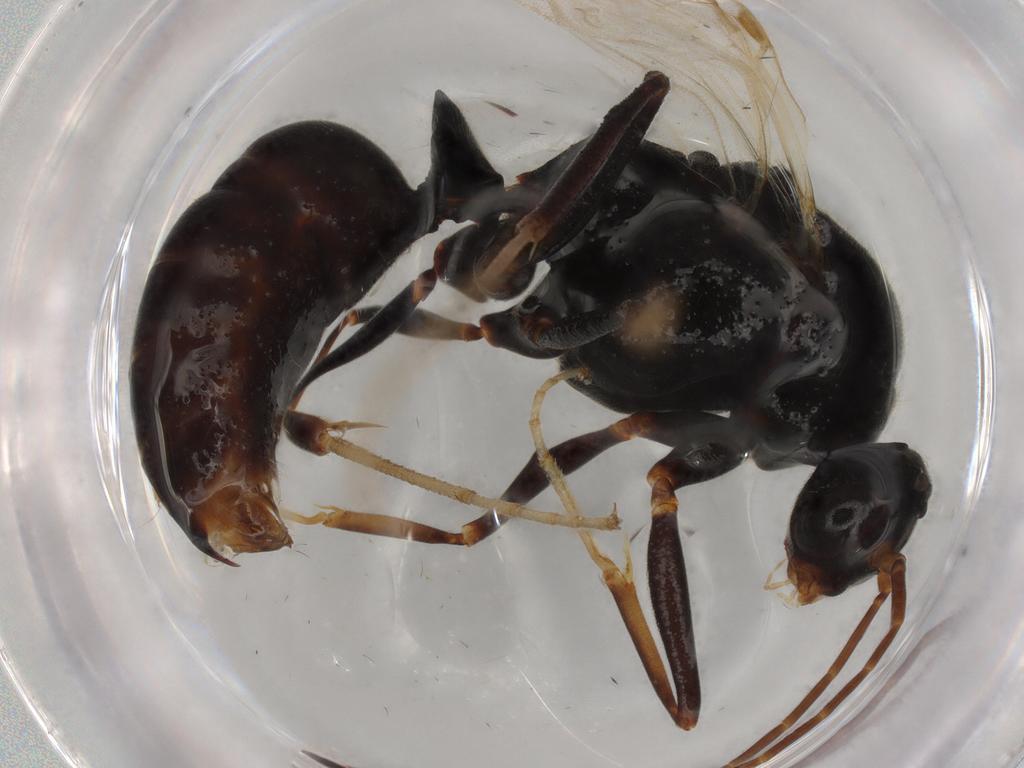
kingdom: Animalia
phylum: Arthropoda
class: Insecta
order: Hymenoptera
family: Formicidae
